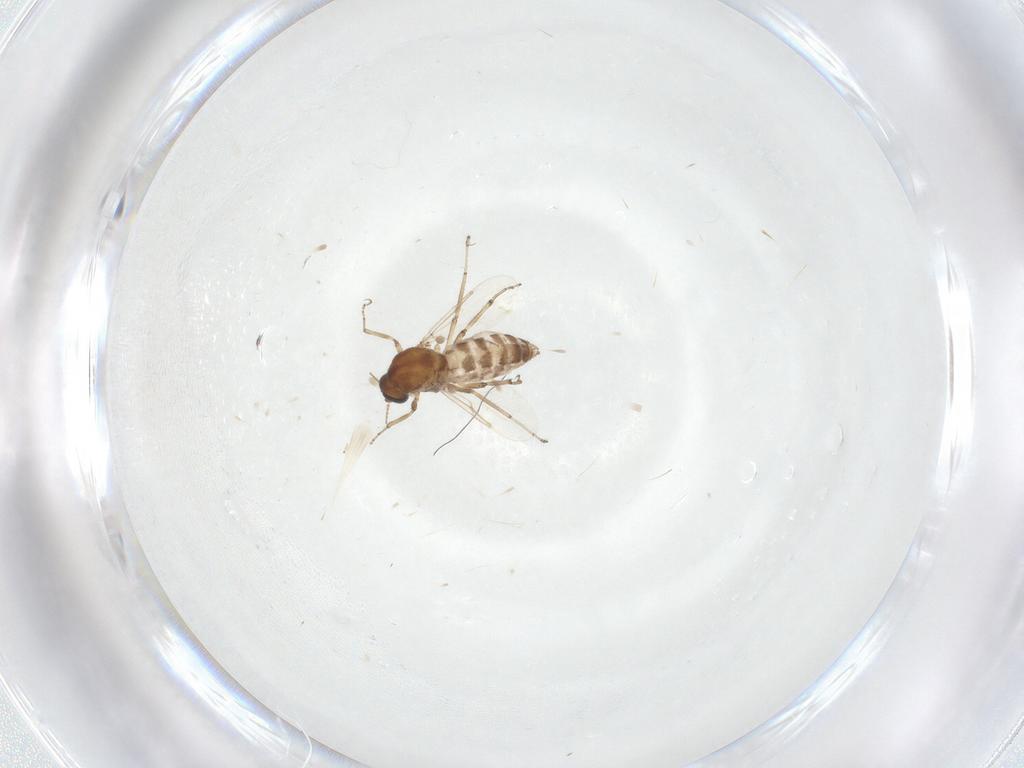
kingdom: Animalia
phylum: Arthropoda
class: Insecta
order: Diptera
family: Ceratopogonidae
